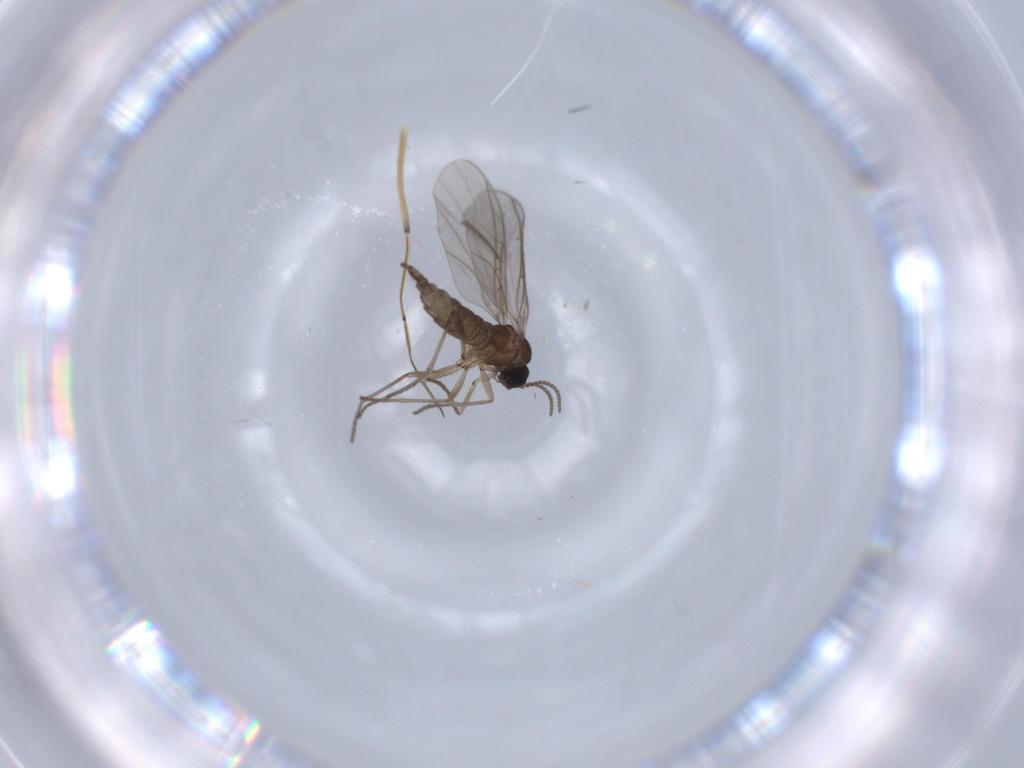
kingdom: Animalia
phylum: Arthropoda
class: Insecta
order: Diptera
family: Sciaridae
